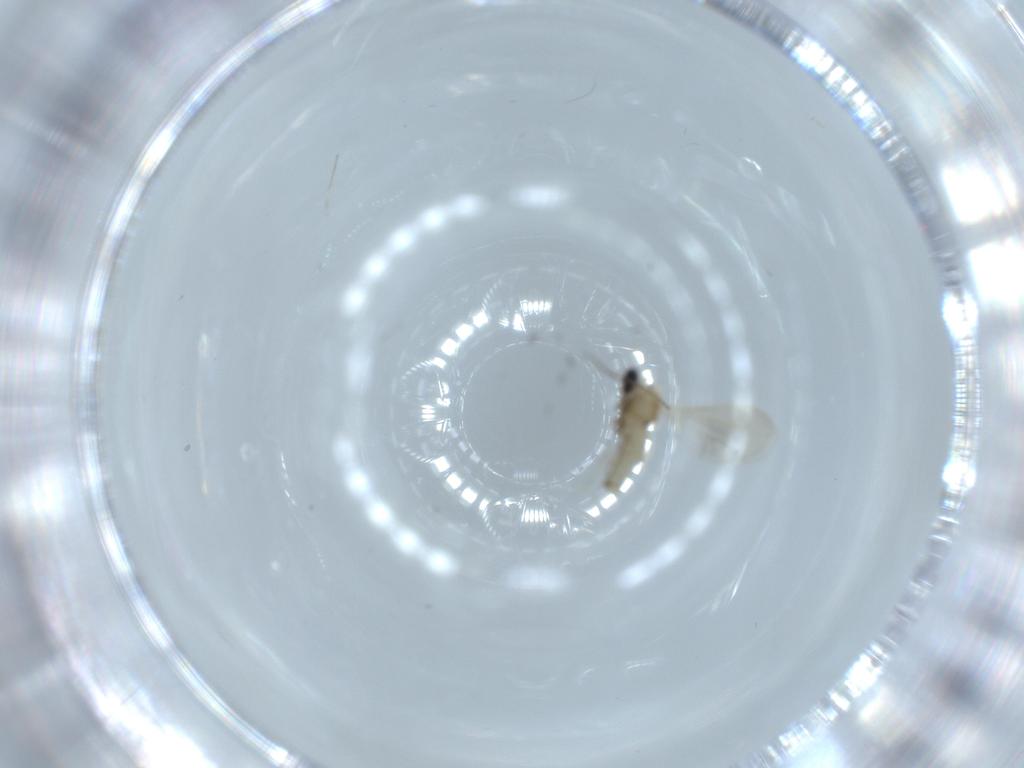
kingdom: Animalia
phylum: Arthropoda
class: Insecta
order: Diptera
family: Cecidomyiidae
